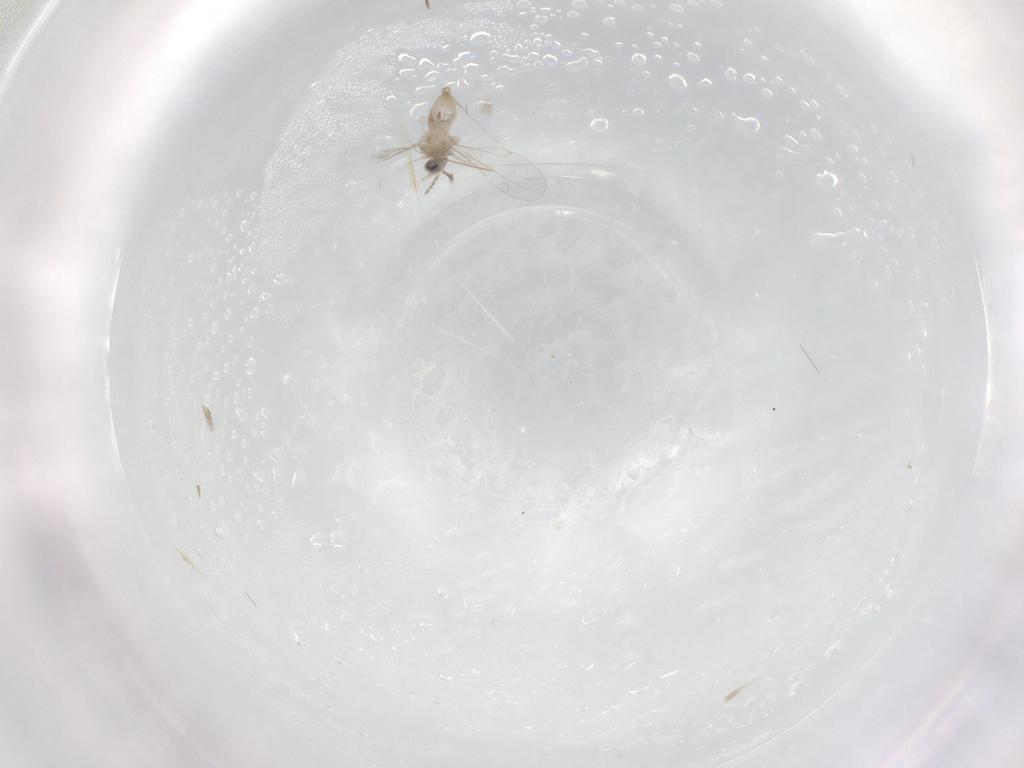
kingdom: Animalia
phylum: Arthropoda
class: Insecta
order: Diptera
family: Cecidomyiidae
